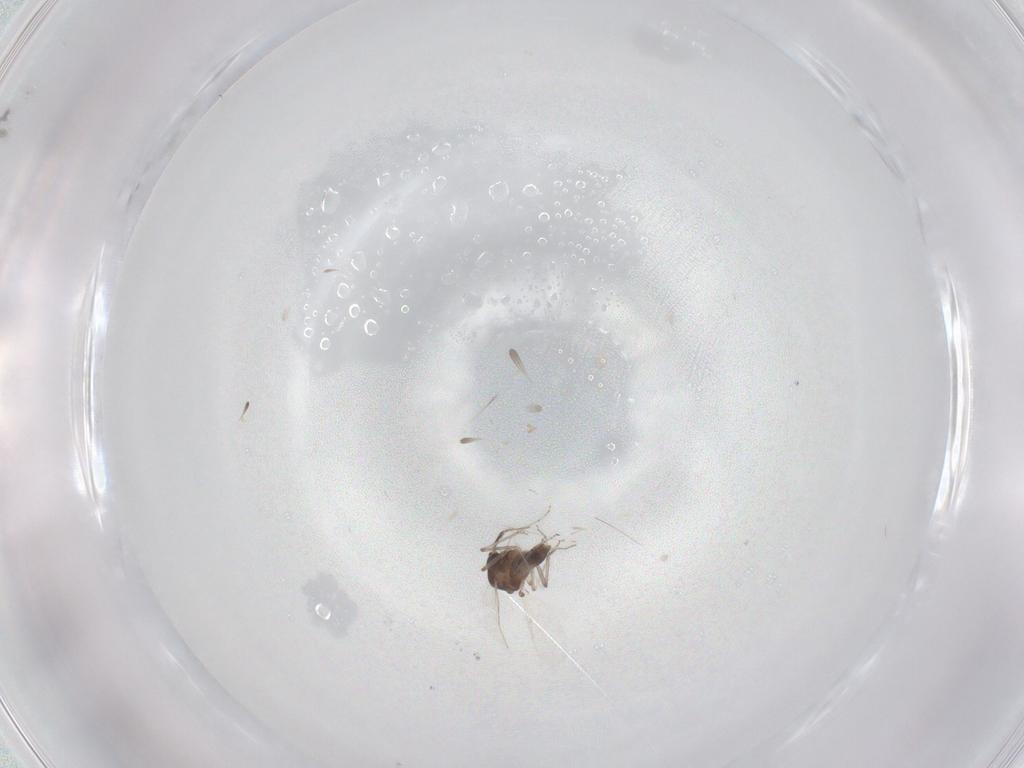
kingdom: Animalia
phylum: Arthropoda
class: Insecta
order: Diptera
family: Ceratopogonidae
